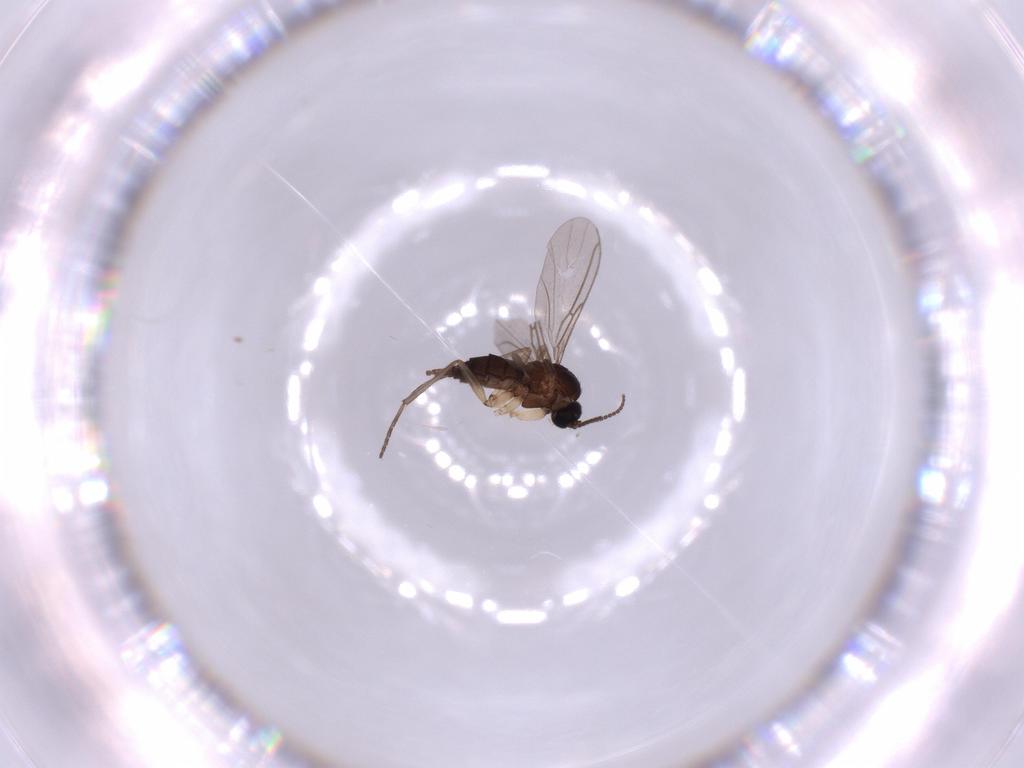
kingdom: Animalia
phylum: Arthropoda
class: Insecta
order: Diptera
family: Sciaridae
